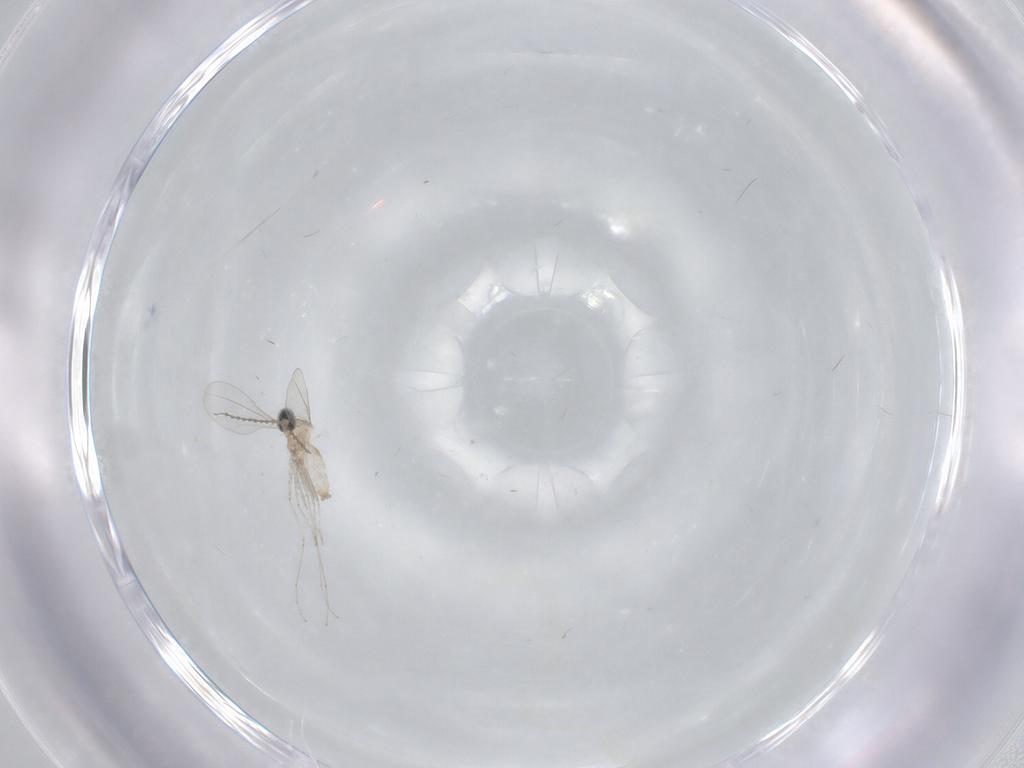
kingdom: Animalia
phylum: Arthropoda
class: Insecta
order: Diptera
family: Cecidomyiidae
